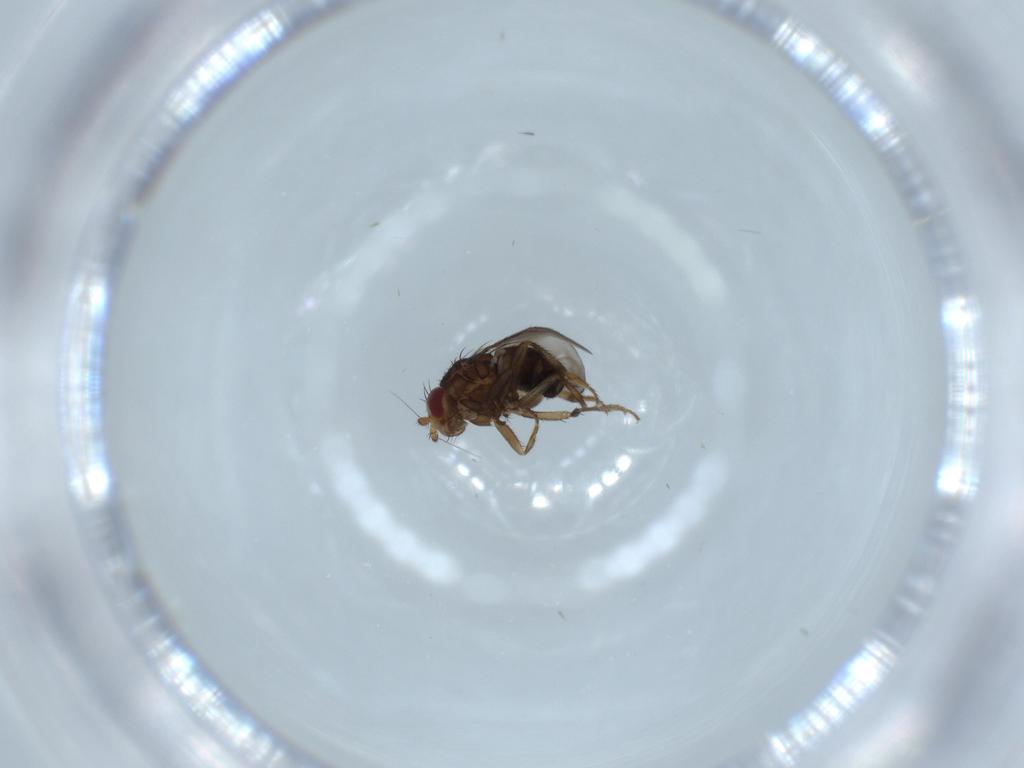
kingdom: Animalia
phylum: Arthropoda
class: Insecta
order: Diptera
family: Sphaeroceridae
